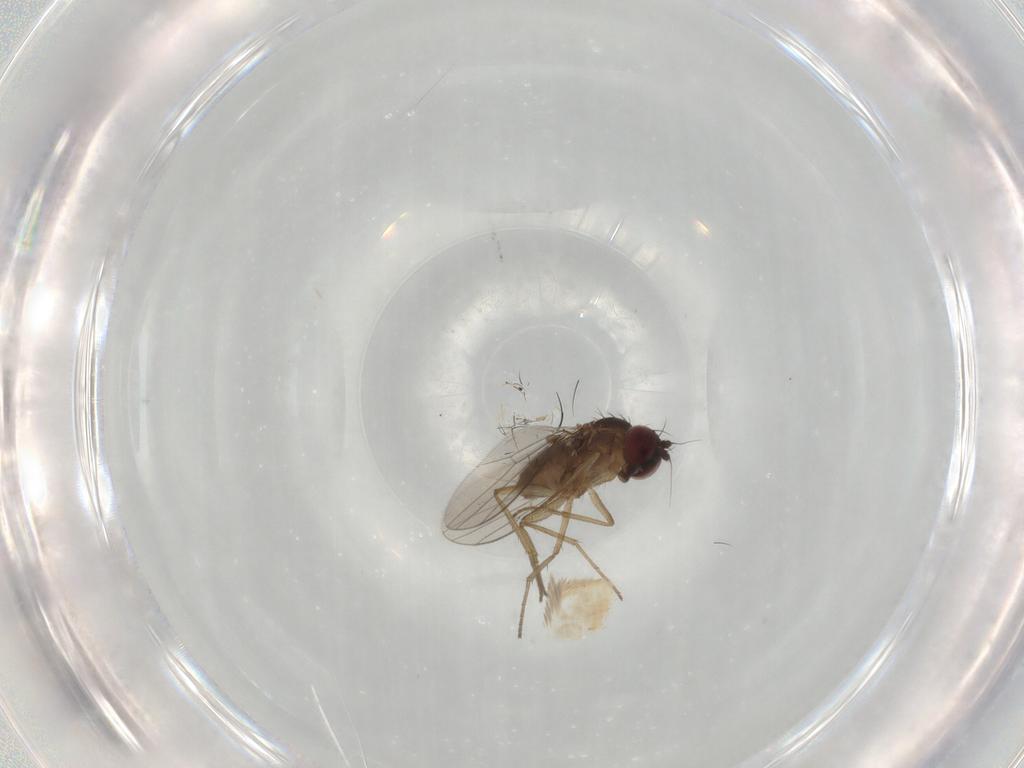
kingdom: Animalia
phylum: Arthropoda
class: Insecta
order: Diptera
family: Dolichopodidae
